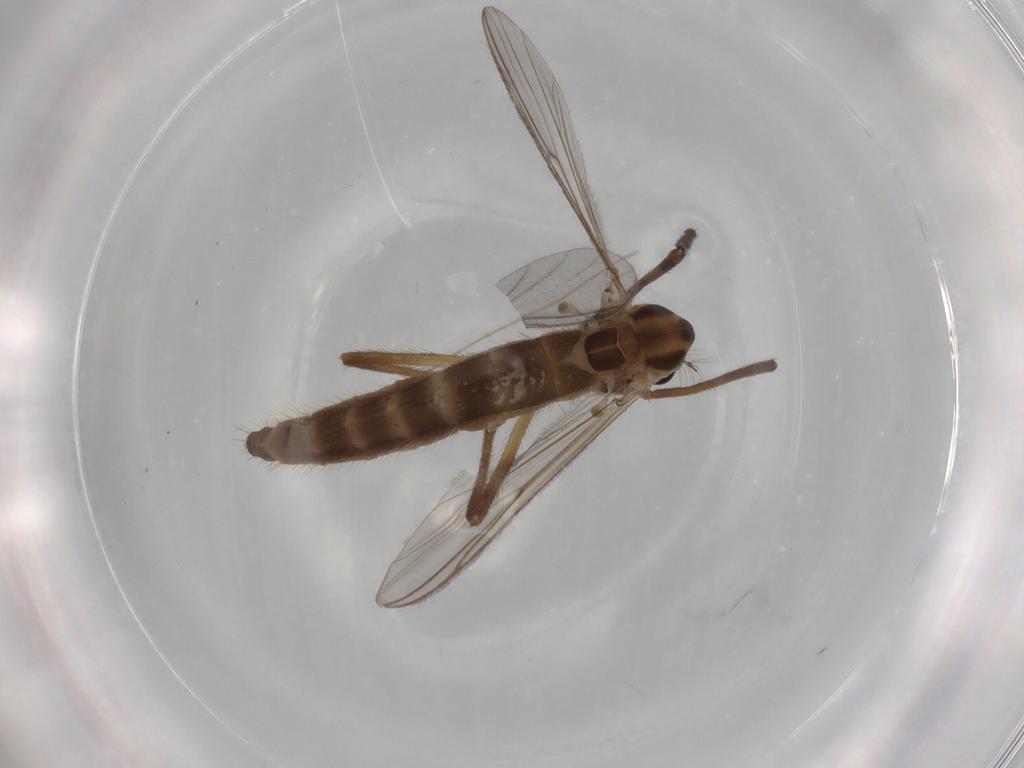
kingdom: Animalia
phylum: Arthropoda
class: Insecta
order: Diptera
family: Chironomidae
